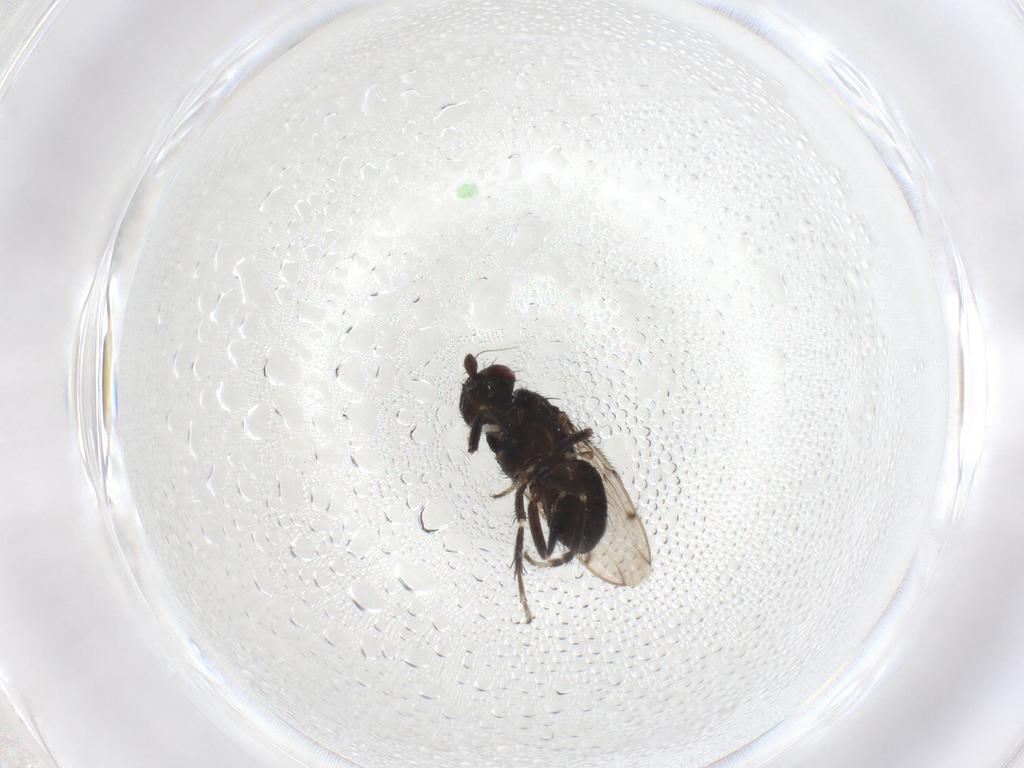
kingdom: Animalia
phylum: Arthropoda
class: Insecta
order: Diptera
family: Sphaeroceridae
